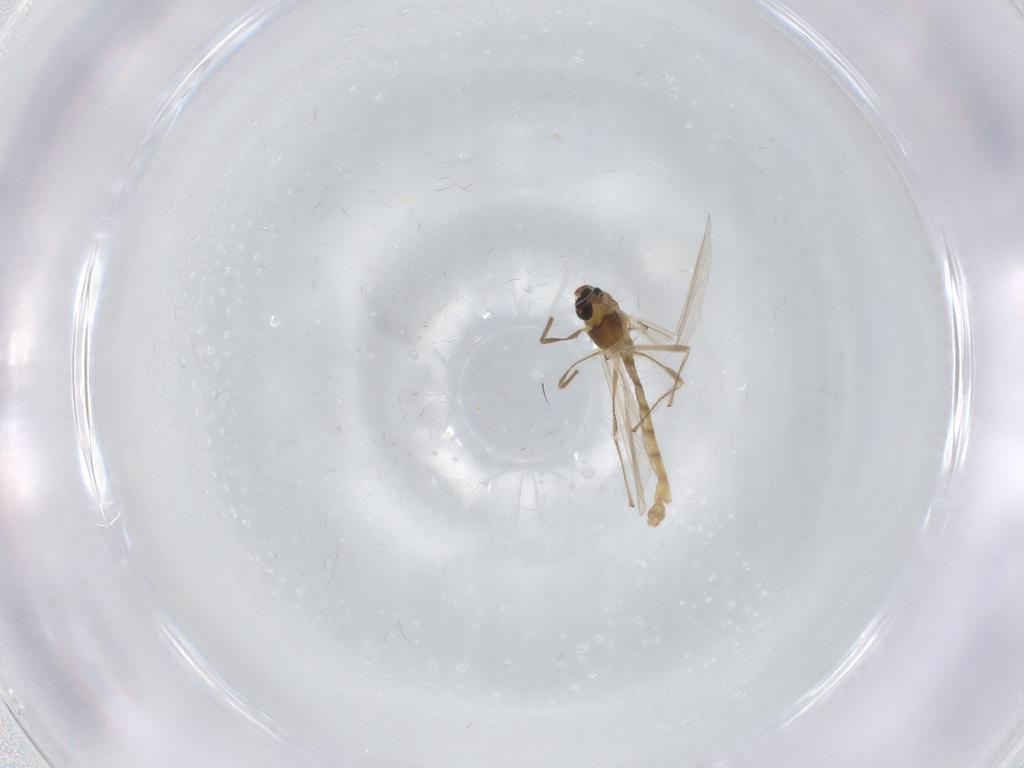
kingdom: Animalia
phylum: Arthropoda
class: Insecta
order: Diptera
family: Chironomidae
